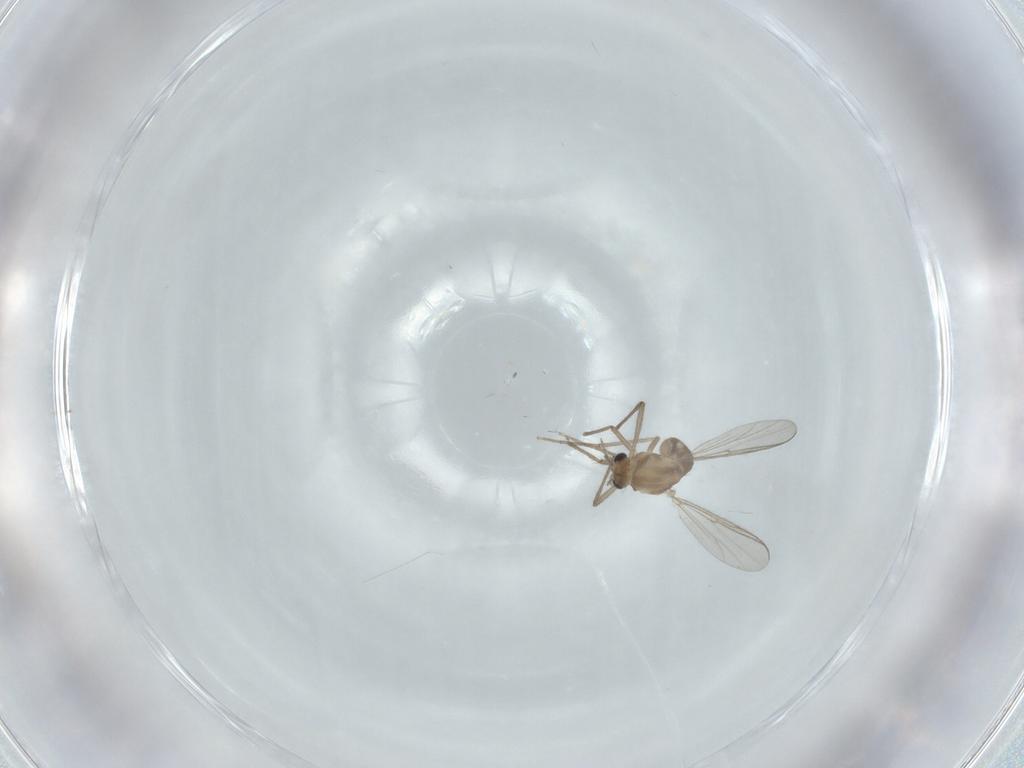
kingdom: Animalia
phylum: Arthropoda
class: Insecta
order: Diptera
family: Sciaridae
